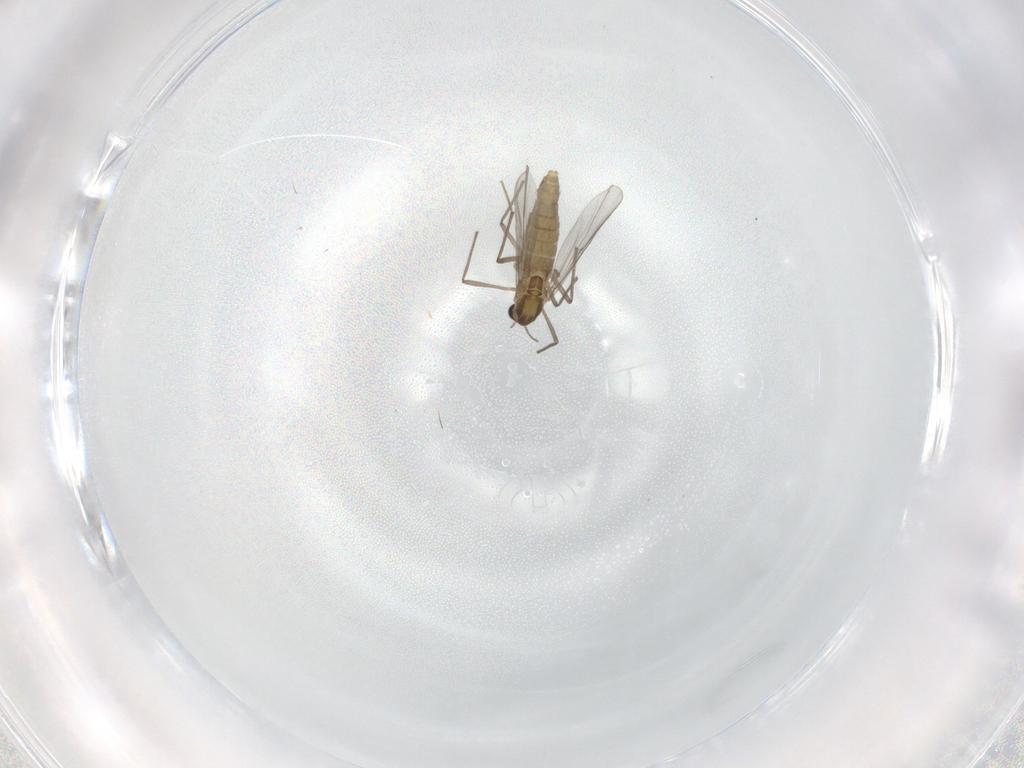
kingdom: Animalia
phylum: Arthropoda
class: Insecta
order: Diptera
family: Psychodidae
